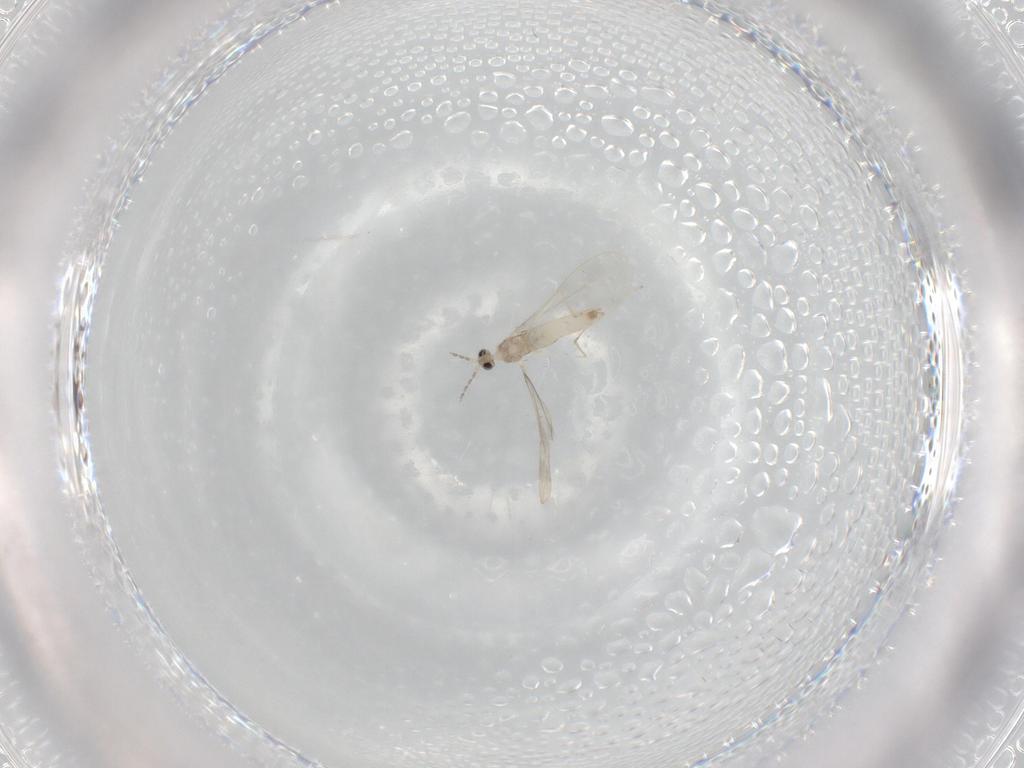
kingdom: Animalia
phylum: Arthropoda
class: Insecta
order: Diptera
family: Cecidomyiidae
